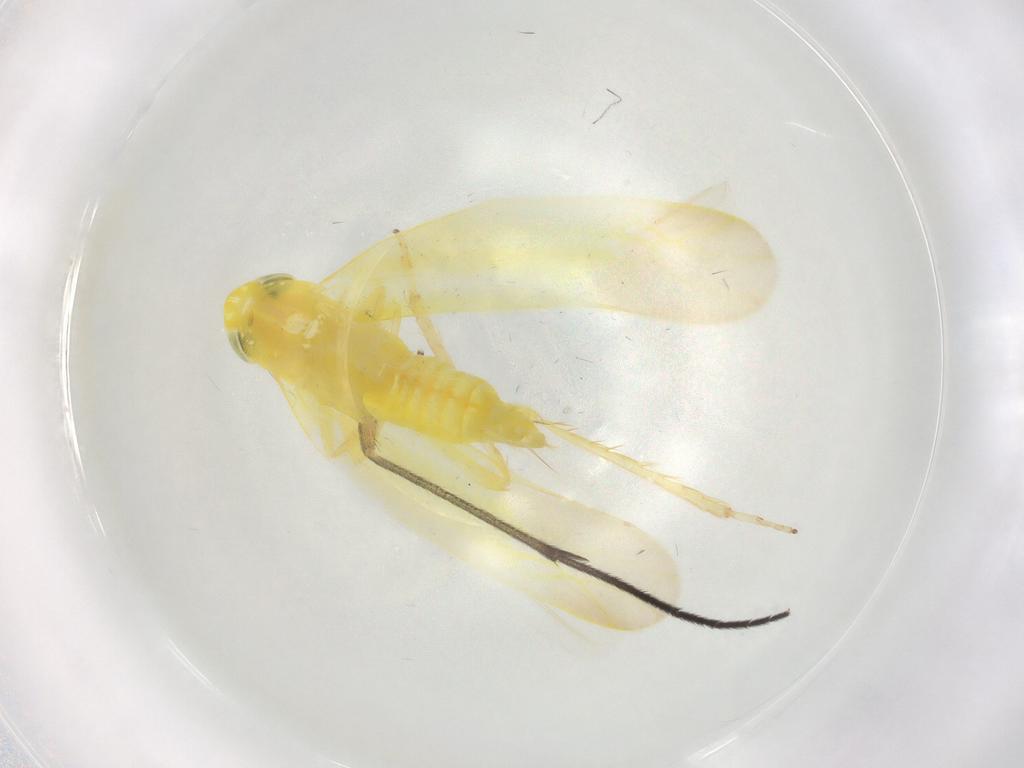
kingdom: Animalia
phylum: Arthropoda
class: Insecta
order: Hemiptera
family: Cicadellidae
